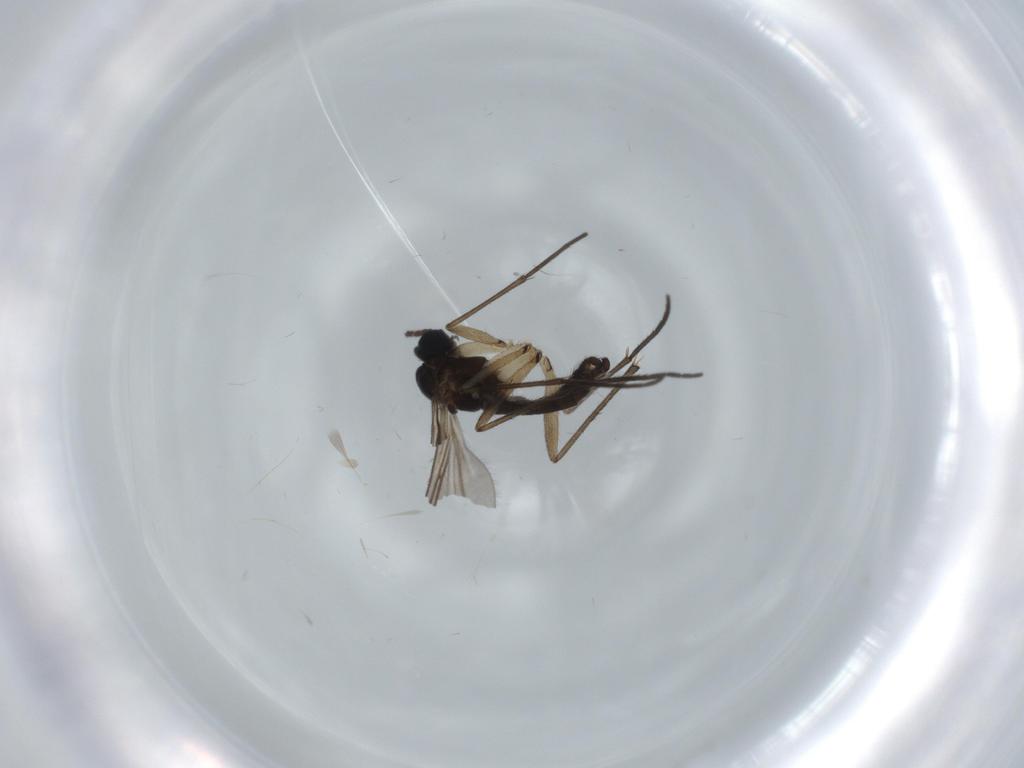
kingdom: Animalia
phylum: Arthropoda
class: Insecta
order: Diptera
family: Sciaridae
